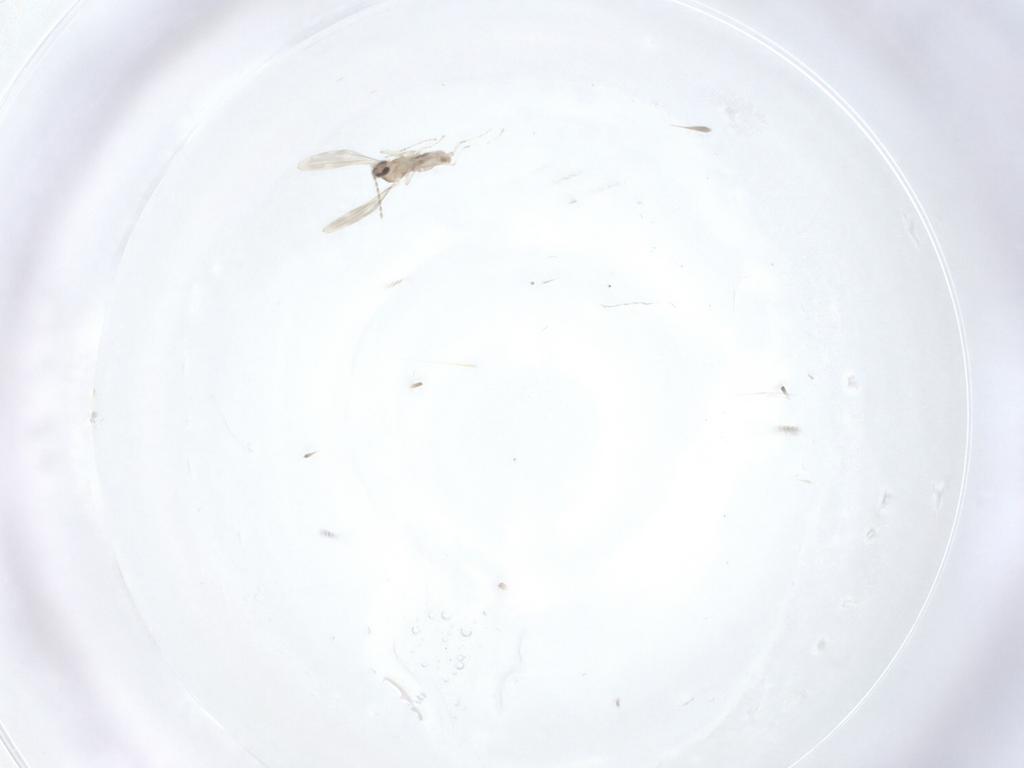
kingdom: Animalia
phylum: Arthropoda
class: Insecta
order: Diptera
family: Cecidomyiidae
